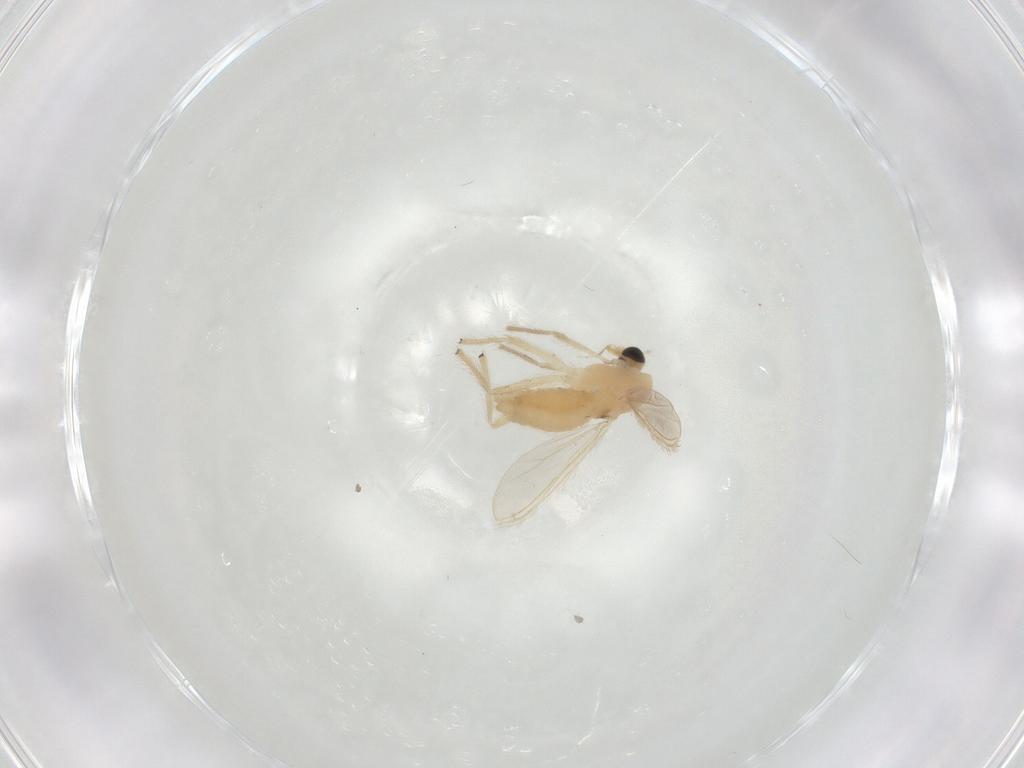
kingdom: Animalia
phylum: Arthropoda
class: Insecta
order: Diptera
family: Chironomidae
